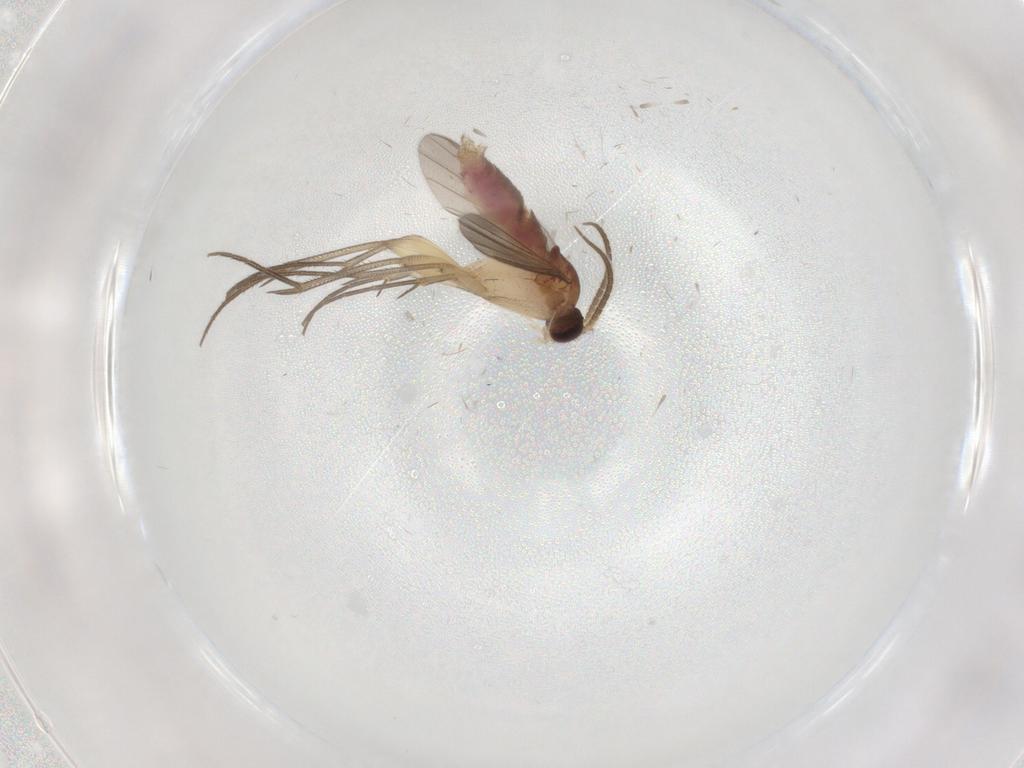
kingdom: Animalia
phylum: Arthropoda
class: Insecta
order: Diptera
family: Mycetophilidae
